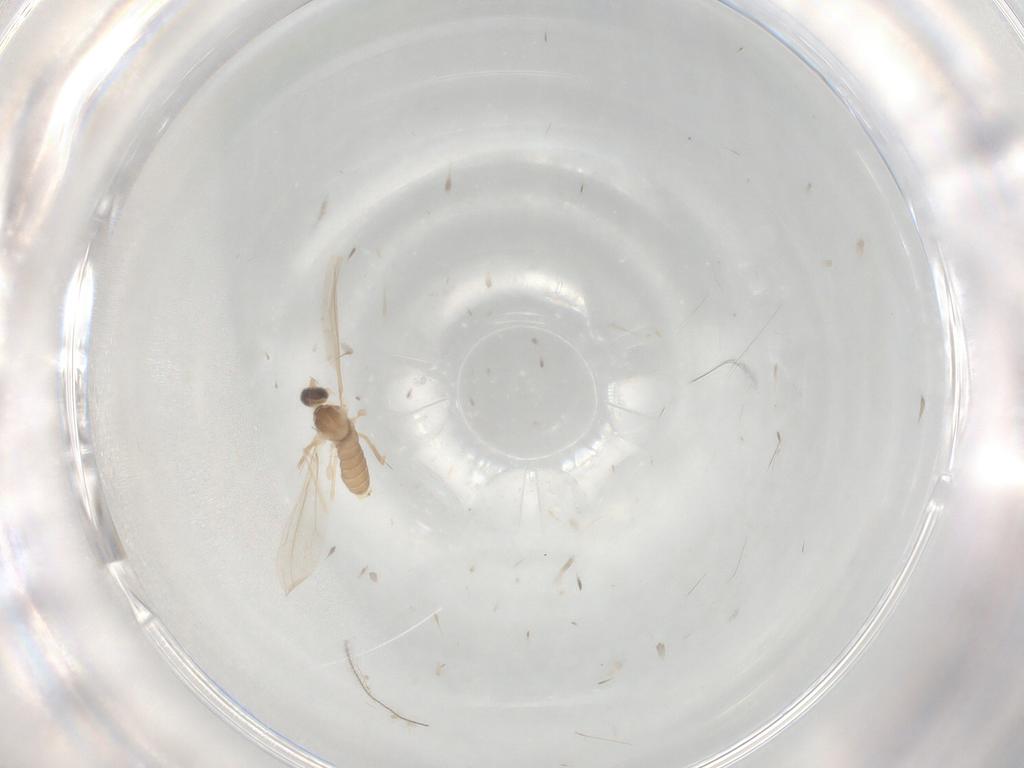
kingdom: Animalia
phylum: Arthropoda
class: Insecta
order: Diptera
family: Cecidomyiidae
